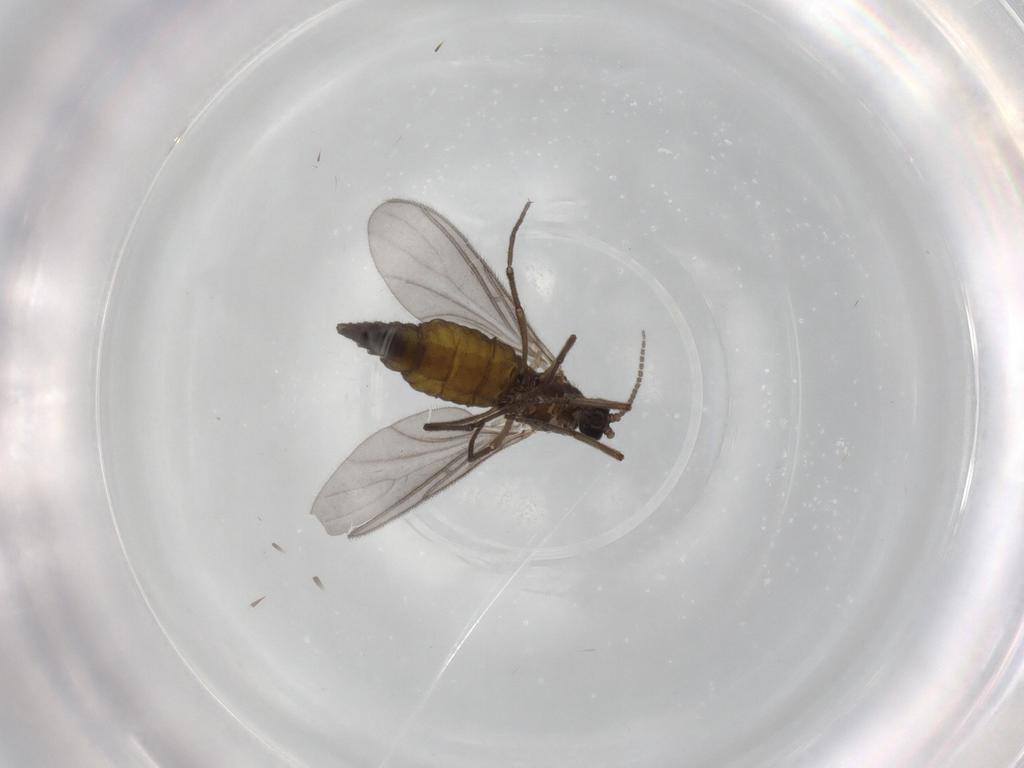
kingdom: Animalia
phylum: Arthropoda
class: Insecta
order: Diptera
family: Sciaridae
